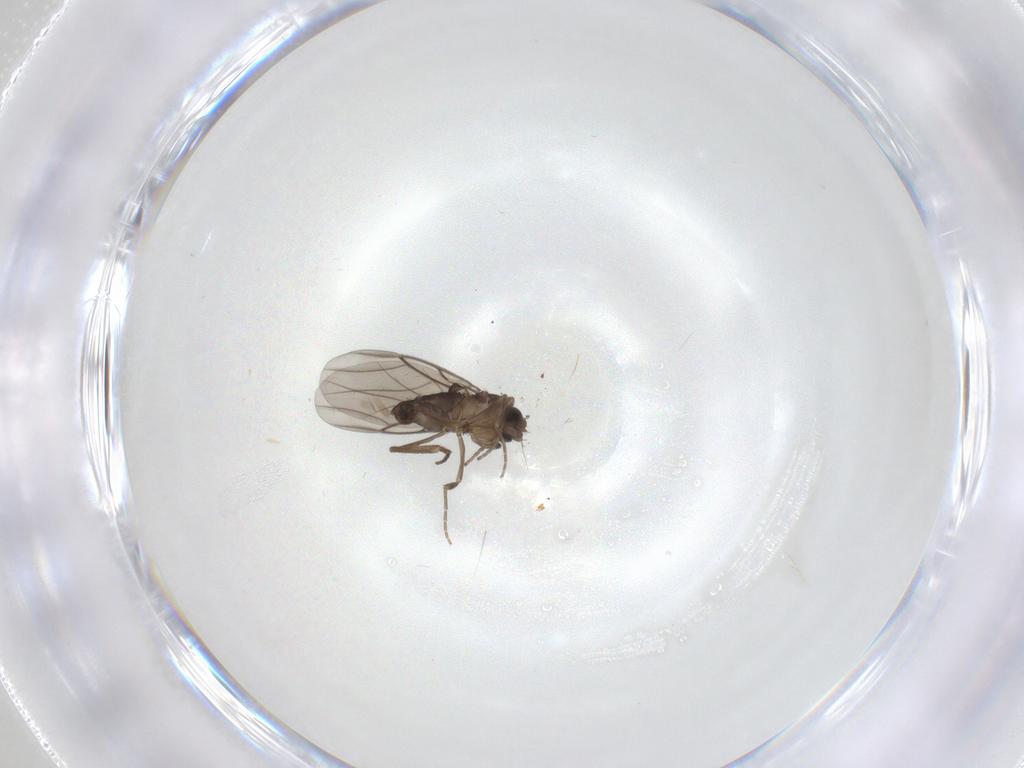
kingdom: Animalia
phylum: Arthropoda
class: Insecta
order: Diptera
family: Phoridae
